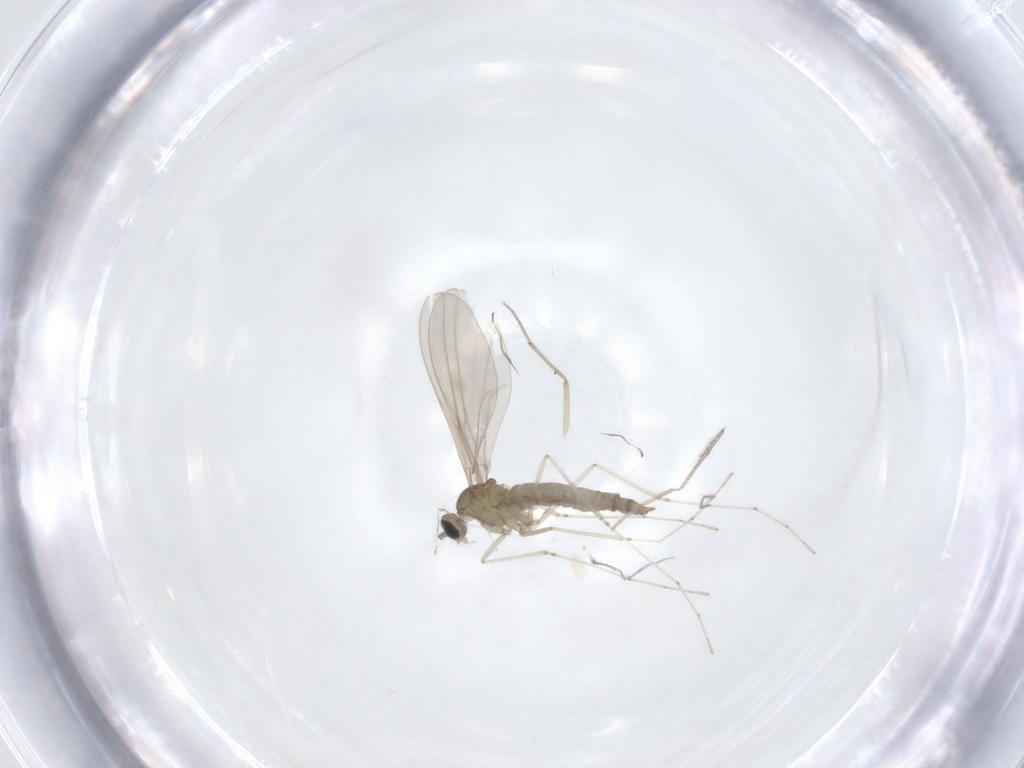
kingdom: Animalia
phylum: Arthropoda
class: Insecta
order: Diptera
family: Chironomidae
